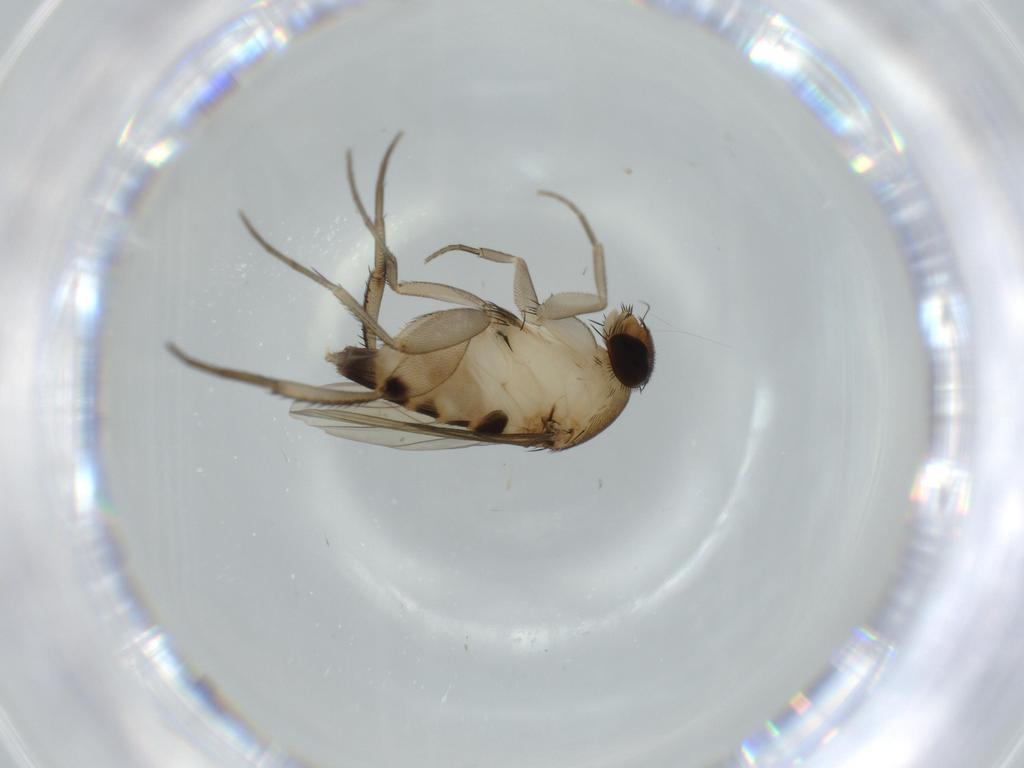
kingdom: Animalia
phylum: Arthropoda
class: Insecta
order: Diptera
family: Phoridae
